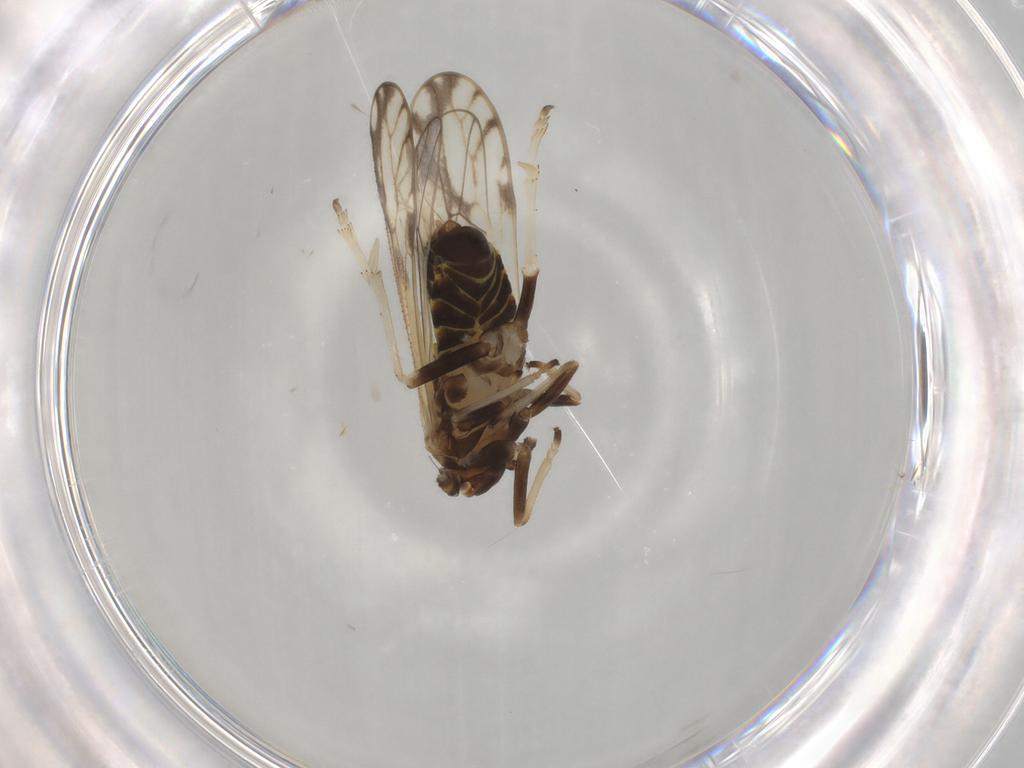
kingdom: Animalia
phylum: Arthropoda
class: Insecta
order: Hemiptera
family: Delphacidae
